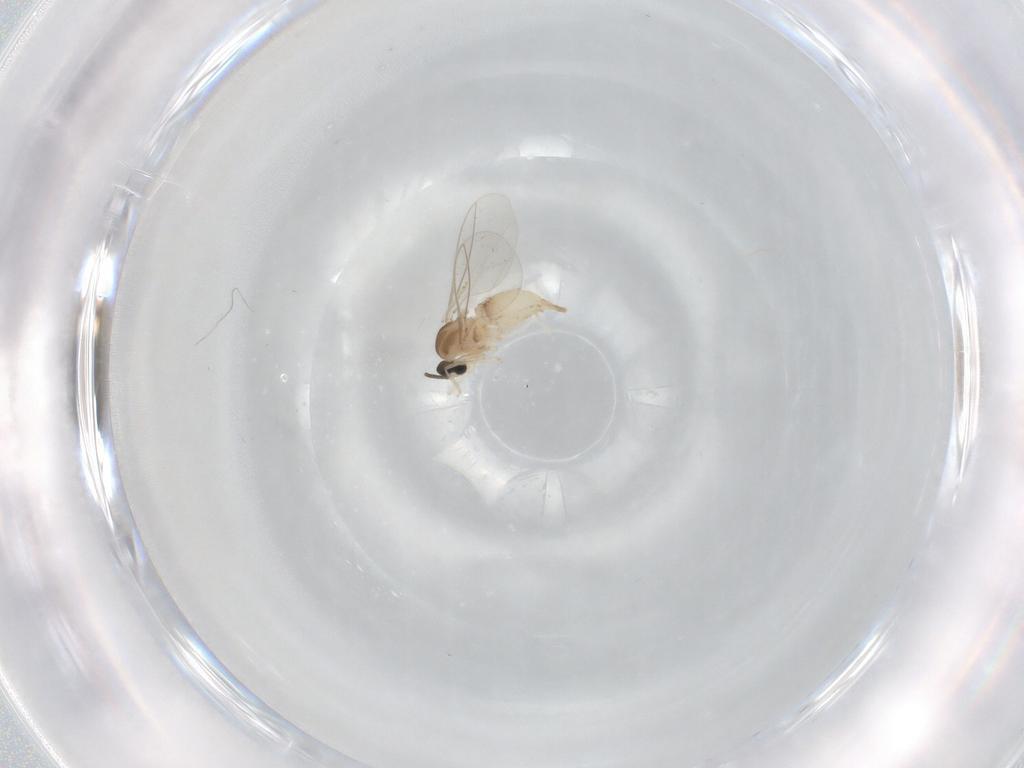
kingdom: Animalia
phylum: Arthropoda
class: Insecta
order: Diptera
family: Cecidomyiidae
